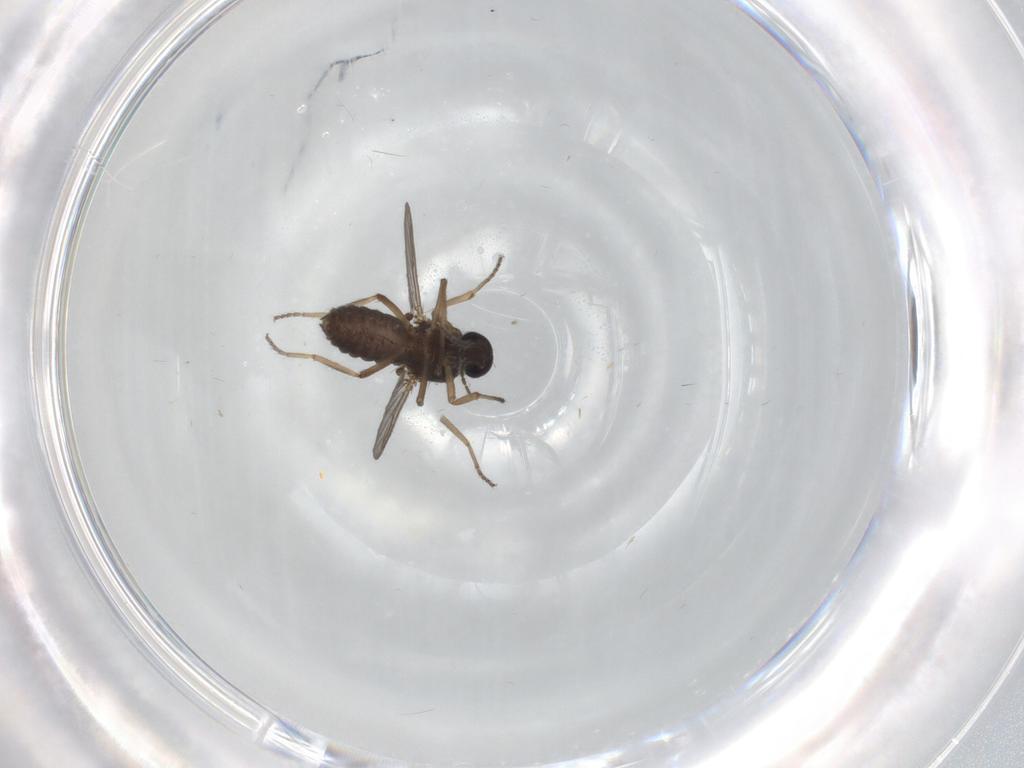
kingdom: Animalia
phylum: Arthropoda
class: Insecta
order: Diptera
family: Ceratopogonidae
